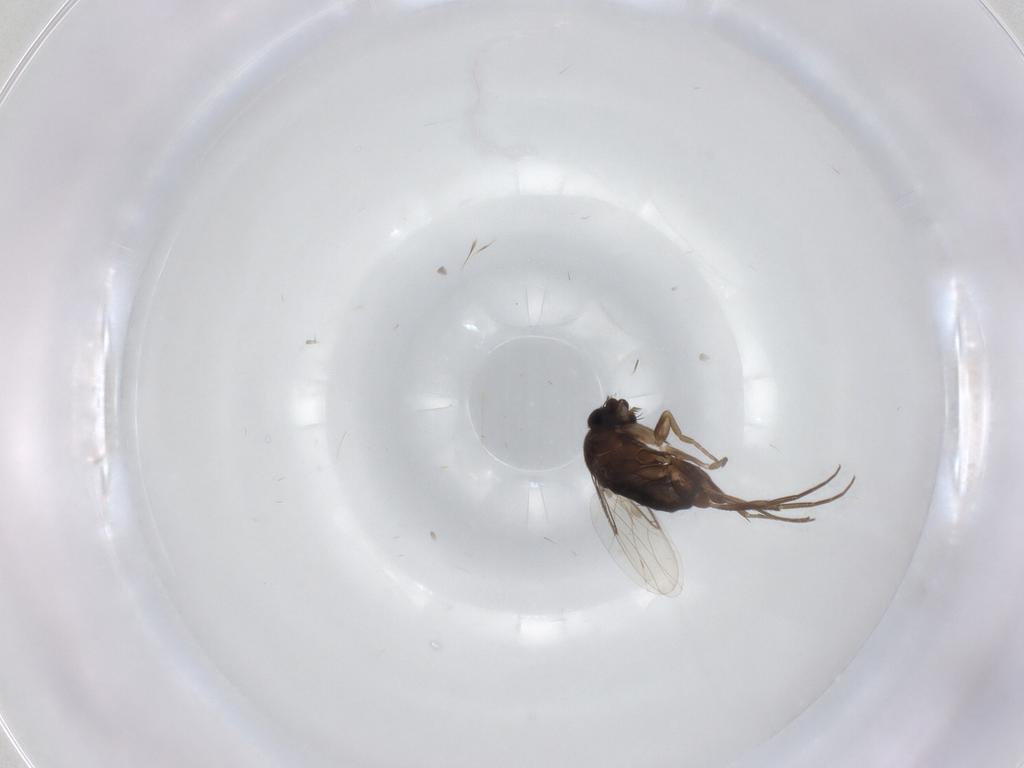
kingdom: Animalia
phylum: Arthropoda
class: Insecta
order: Diptera
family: Phoridae
